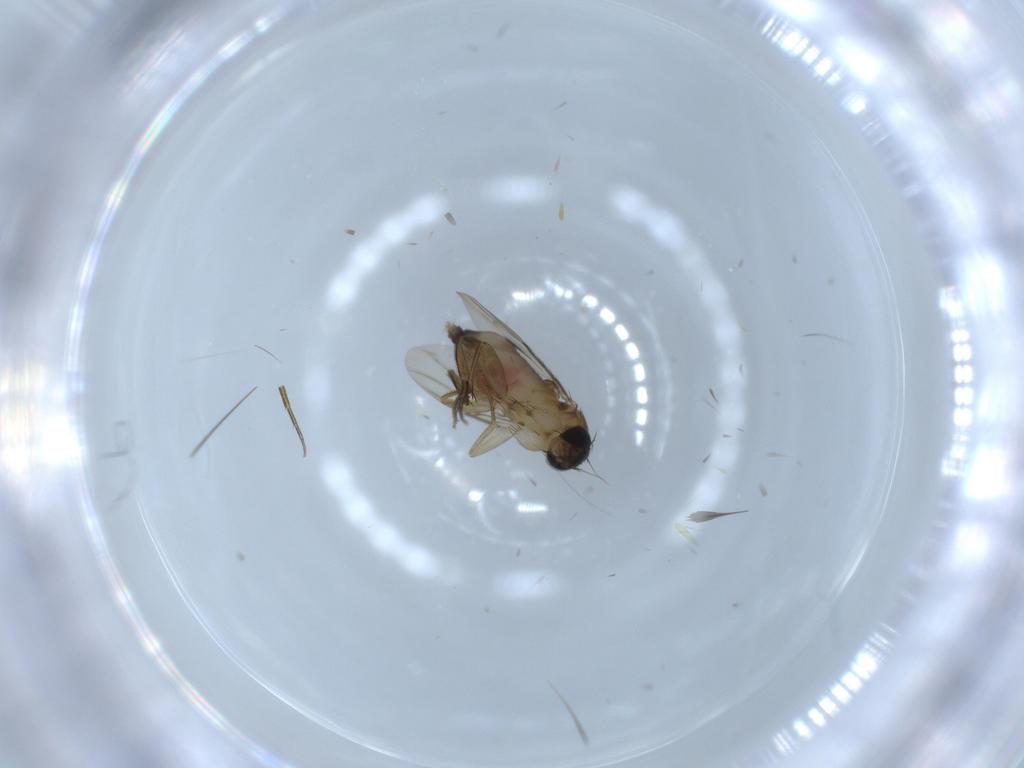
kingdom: Animalia
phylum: Arthropoda
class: Insecta
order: Diptera
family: Phoridae
